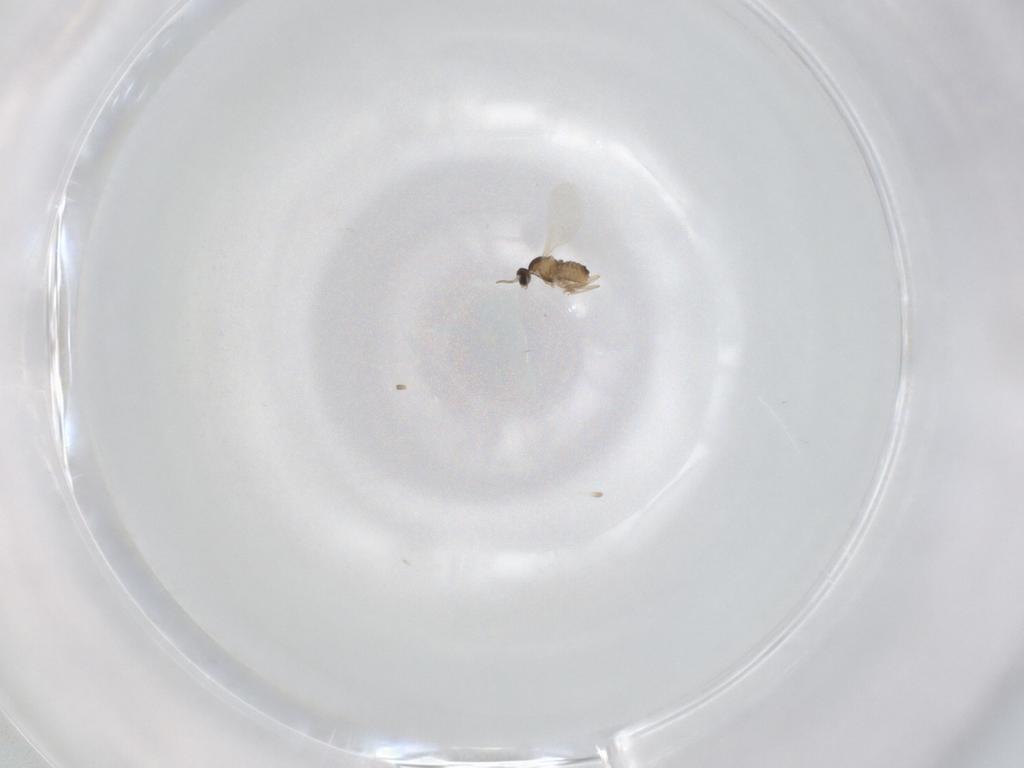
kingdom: Animalia
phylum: Arthropoda
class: Insecta
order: Diptera
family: Cecidomyiidae
